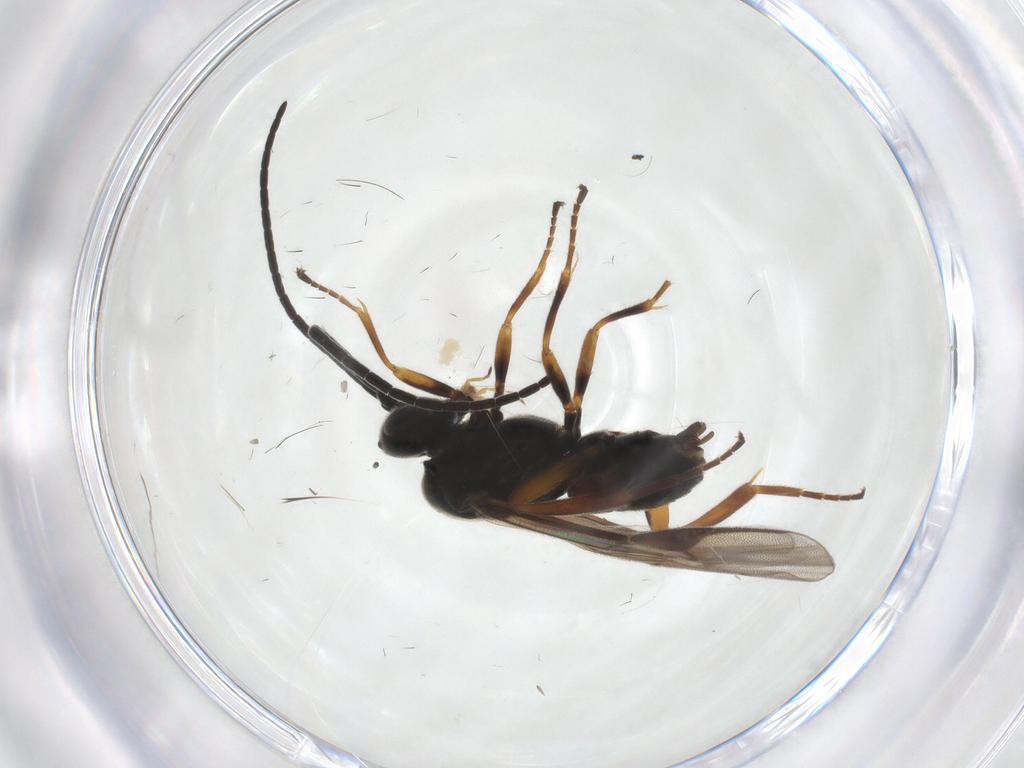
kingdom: Animalia
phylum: Arthropoda
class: Insecta
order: Hymenoptera
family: Braconidae
